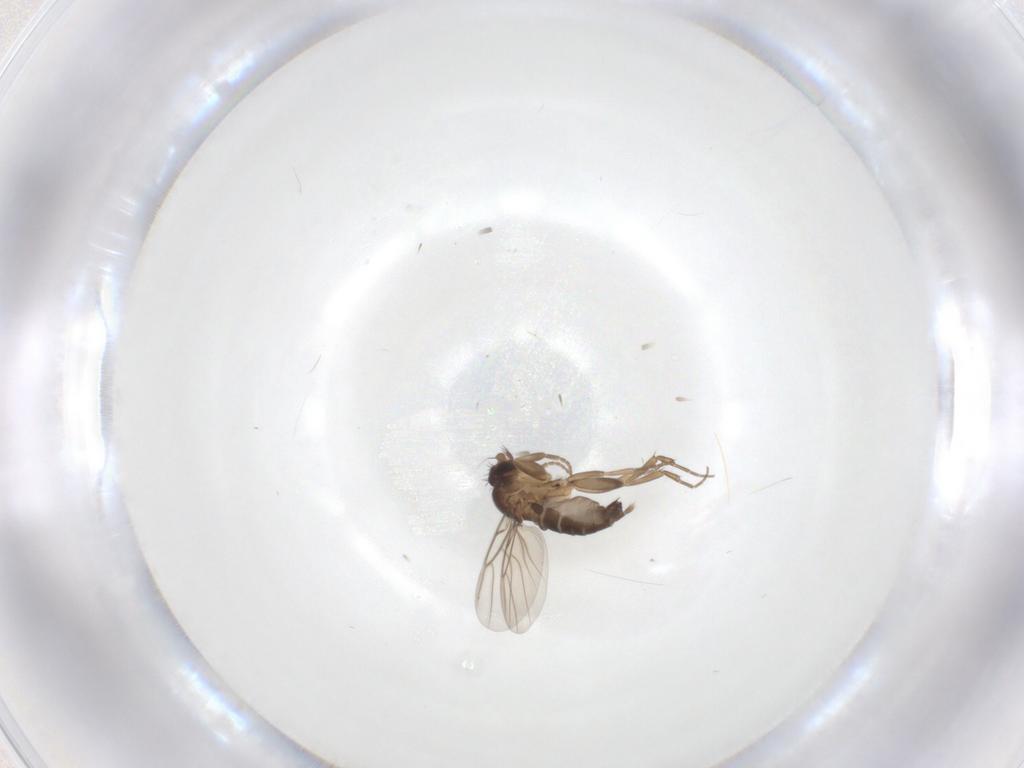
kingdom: Animalia
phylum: Arthropoda
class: Insecta
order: Diptera
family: Phoridae
